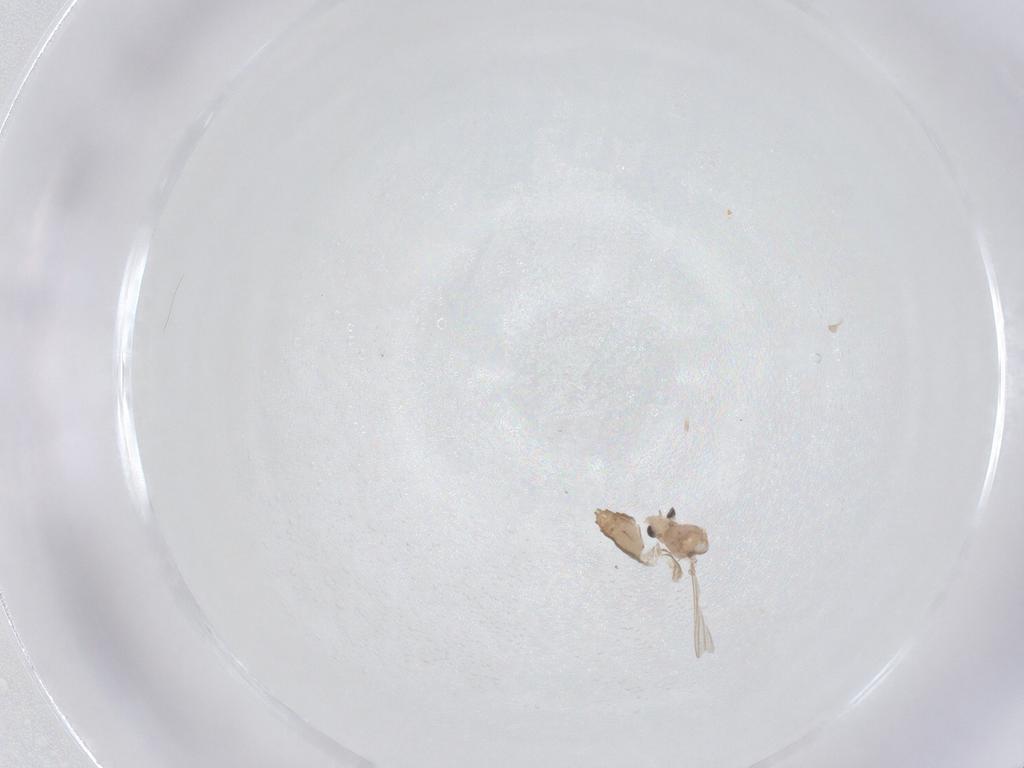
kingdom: Animalia
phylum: Arthropoda
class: Insecta
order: Diptera
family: Chironomidae
